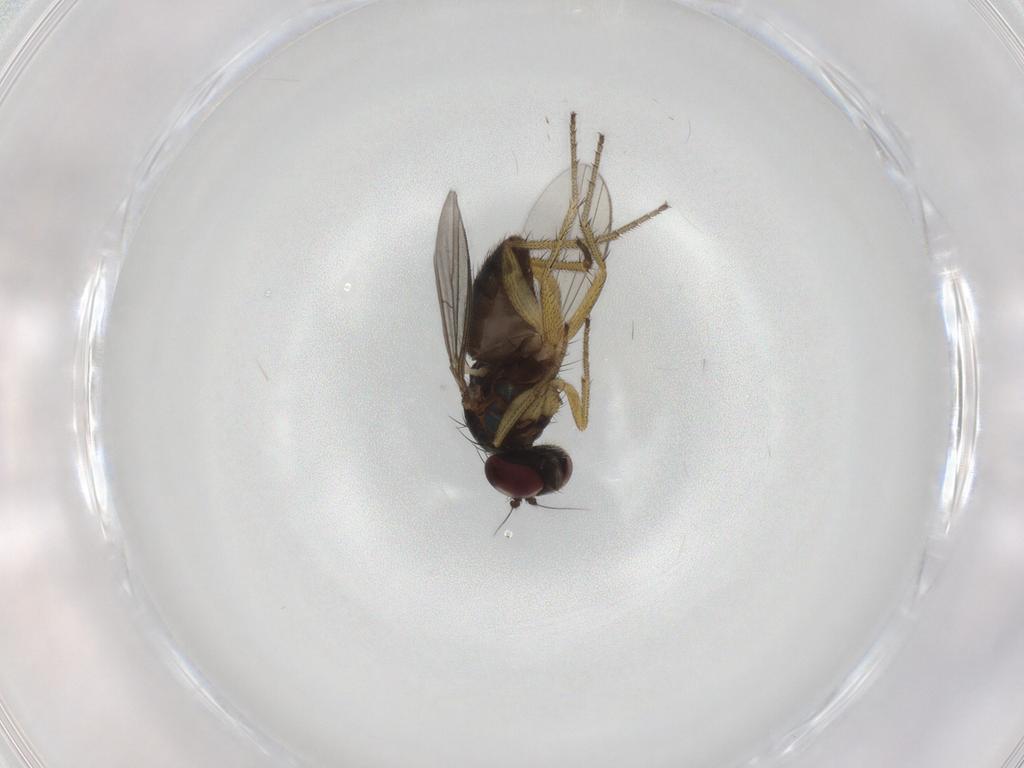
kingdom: Animalia
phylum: Arthropoda
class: Insecta
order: Diptera
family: Dolichopodidae
